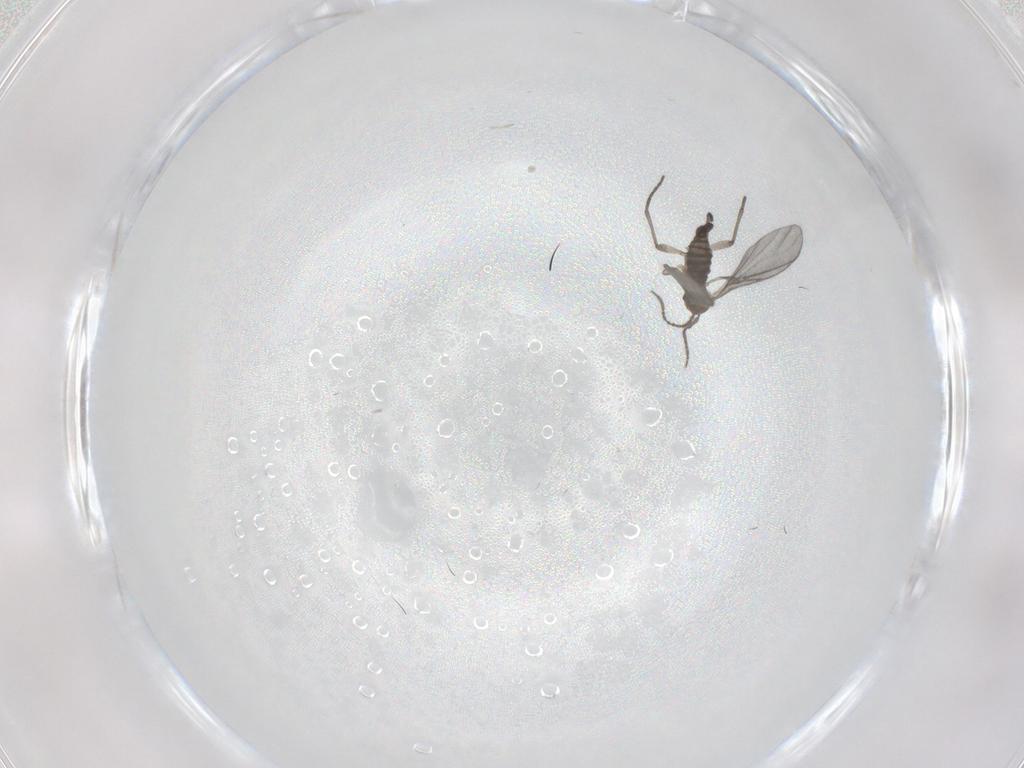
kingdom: Animalia
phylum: Arthropoda
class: Insecta
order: Diptera
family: Sciaridae
